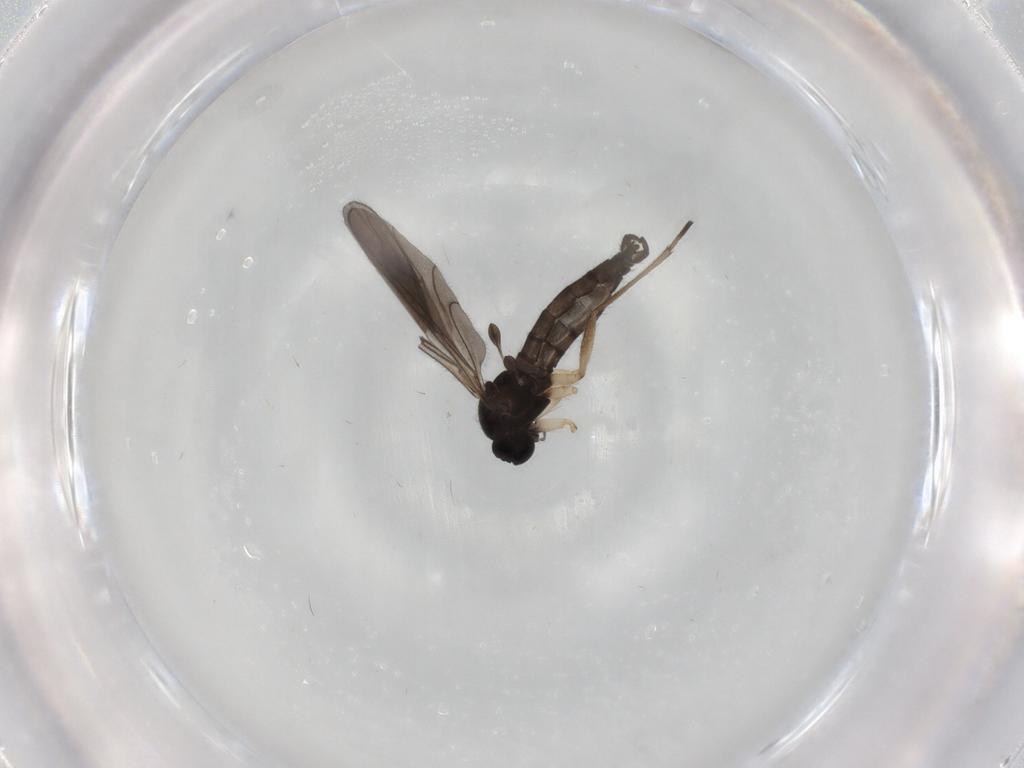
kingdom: Animalia
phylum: Arthropoda
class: Insecta
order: Diptera
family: Sciaridae
